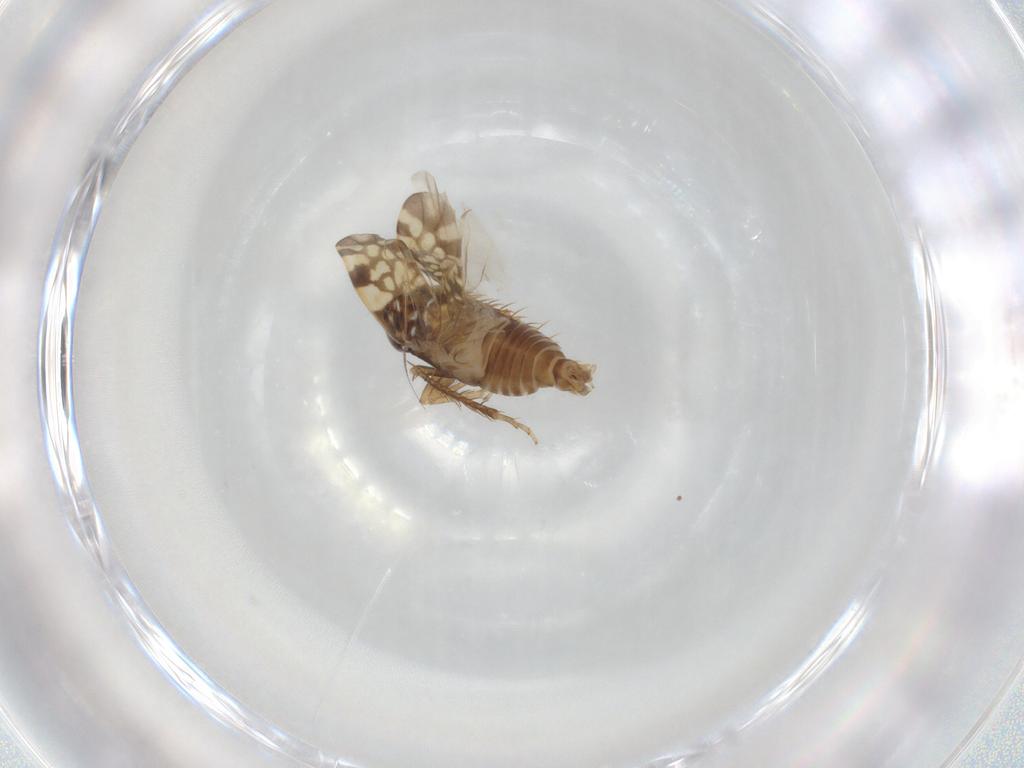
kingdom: Animalia
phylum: Arthropoda
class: Insecta
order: Hemiptera
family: Cicadellidae
